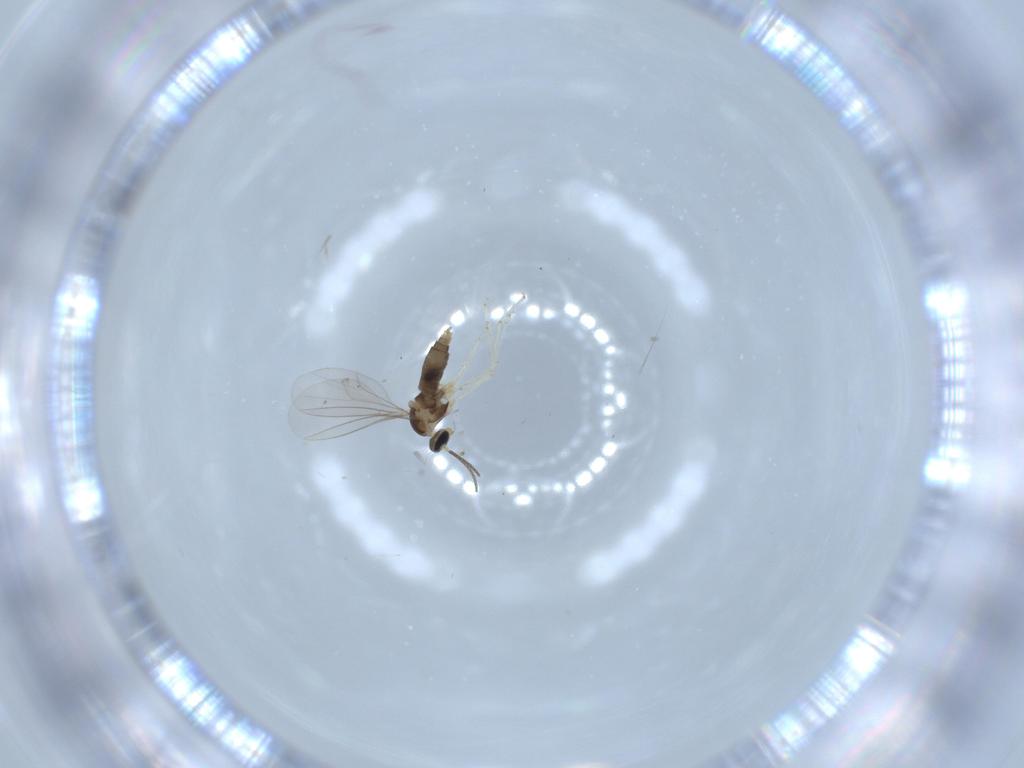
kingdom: Animalia
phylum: Arthropoda
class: Insecta
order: Diptera
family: Cecidomyiidae
